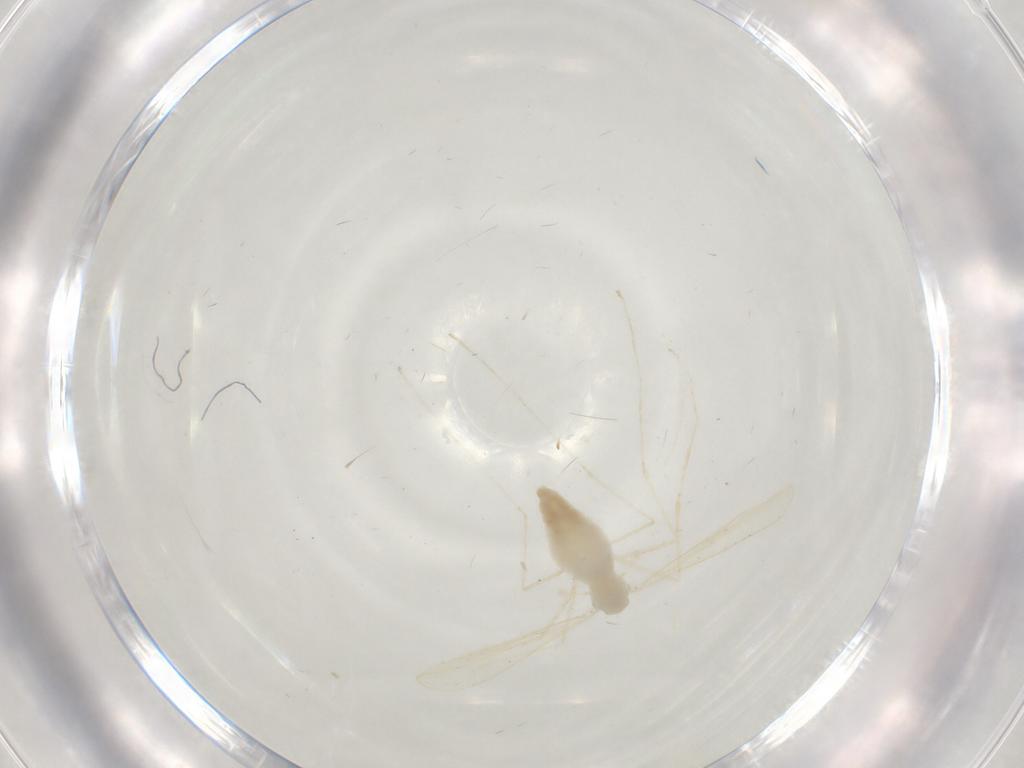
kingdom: Animalia
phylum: Arthropoda
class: Insecta
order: Diptera
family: Cecidomyiidae
